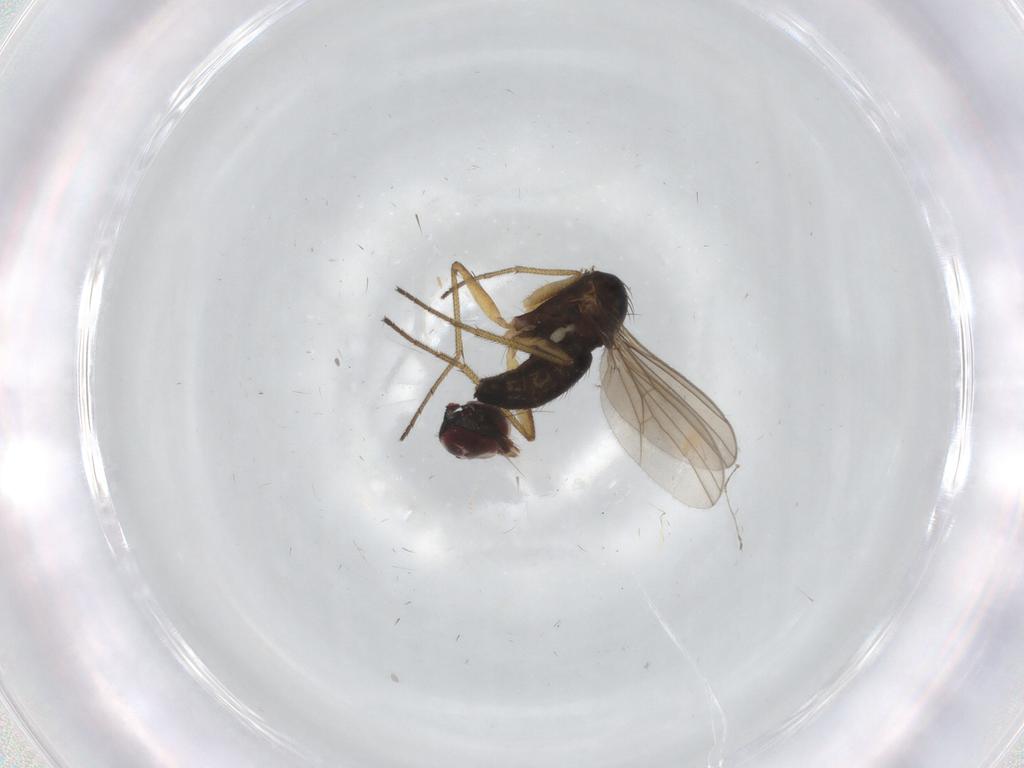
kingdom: Animalia
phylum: Arthropoda
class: Insecta
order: Diptera
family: Dolichopodidae
